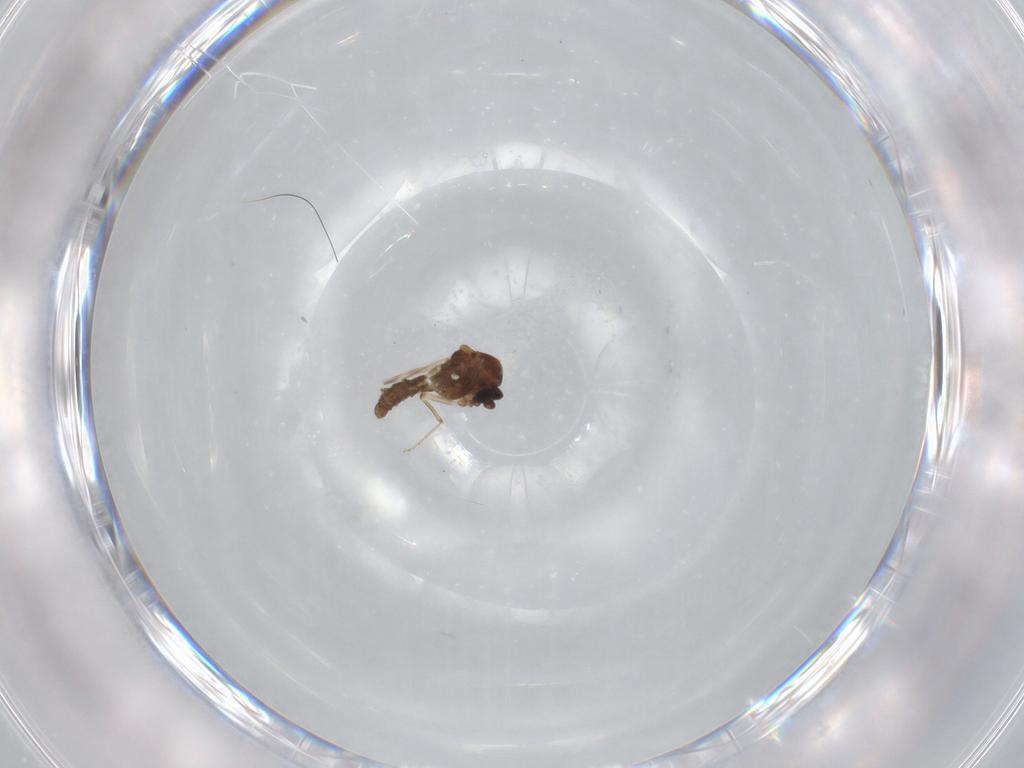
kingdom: Animalia
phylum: Arthropoda
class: Insecta
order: Diptera
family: Ceratopogonidae
